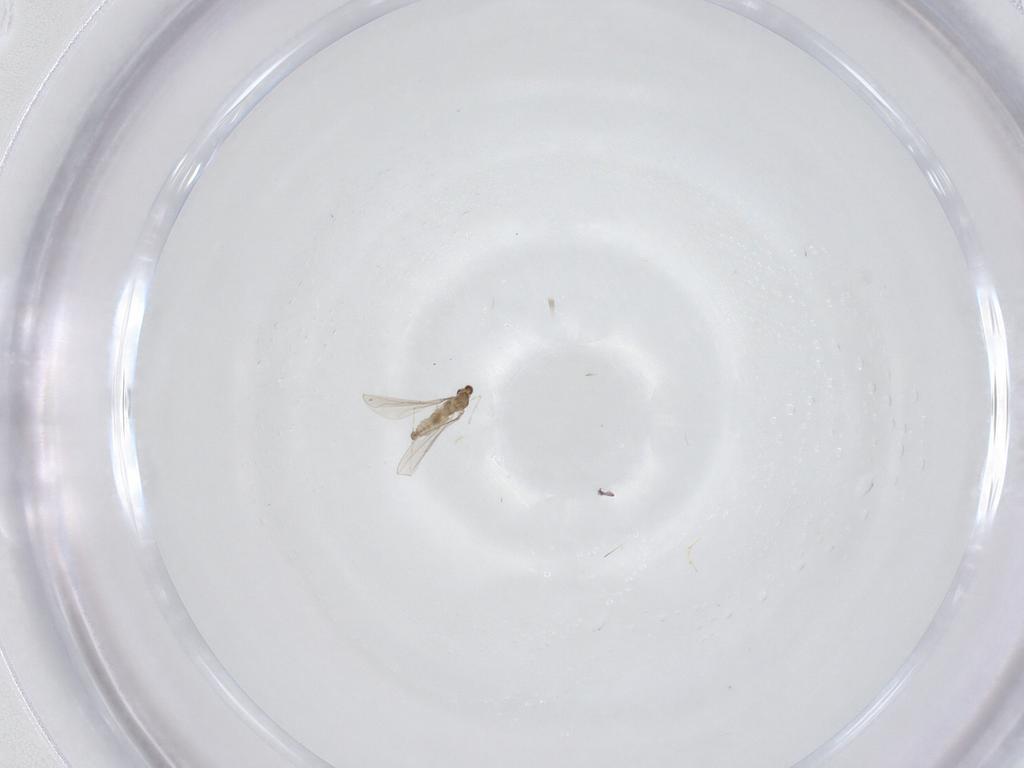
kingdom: Animalia
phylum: Arthropoda
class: Insecta
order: Diptera
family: Cecidomyiidae
